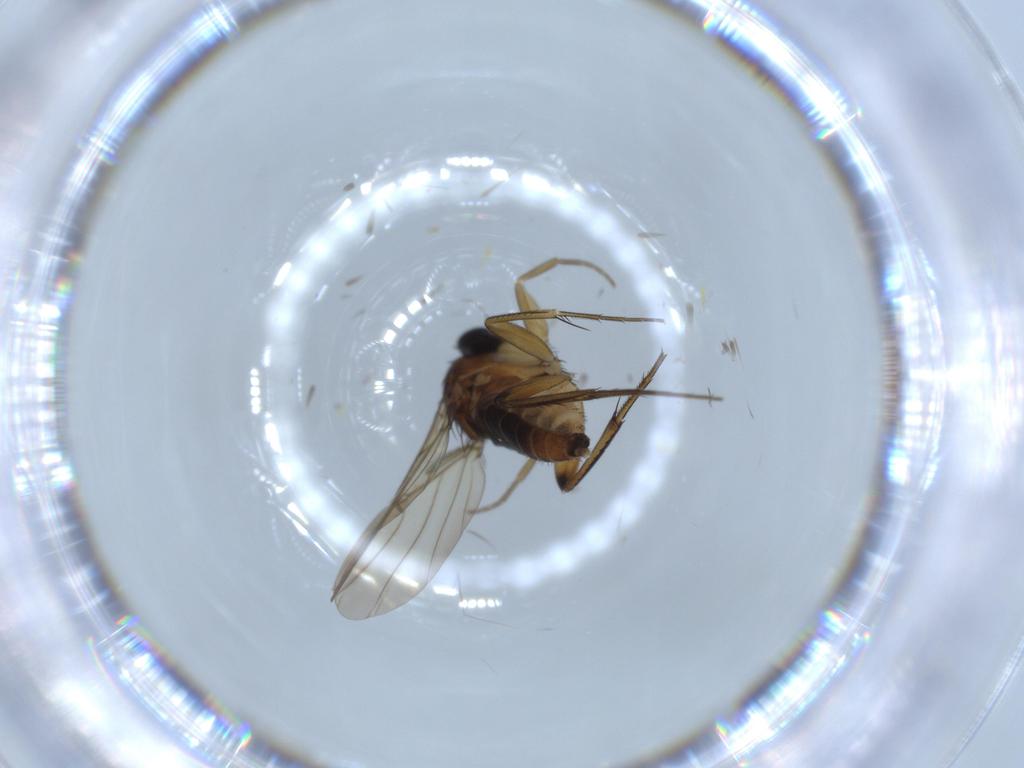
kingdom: Animalia
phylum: Arthropoda
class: Insecta
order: Diptera
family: Phoridae
